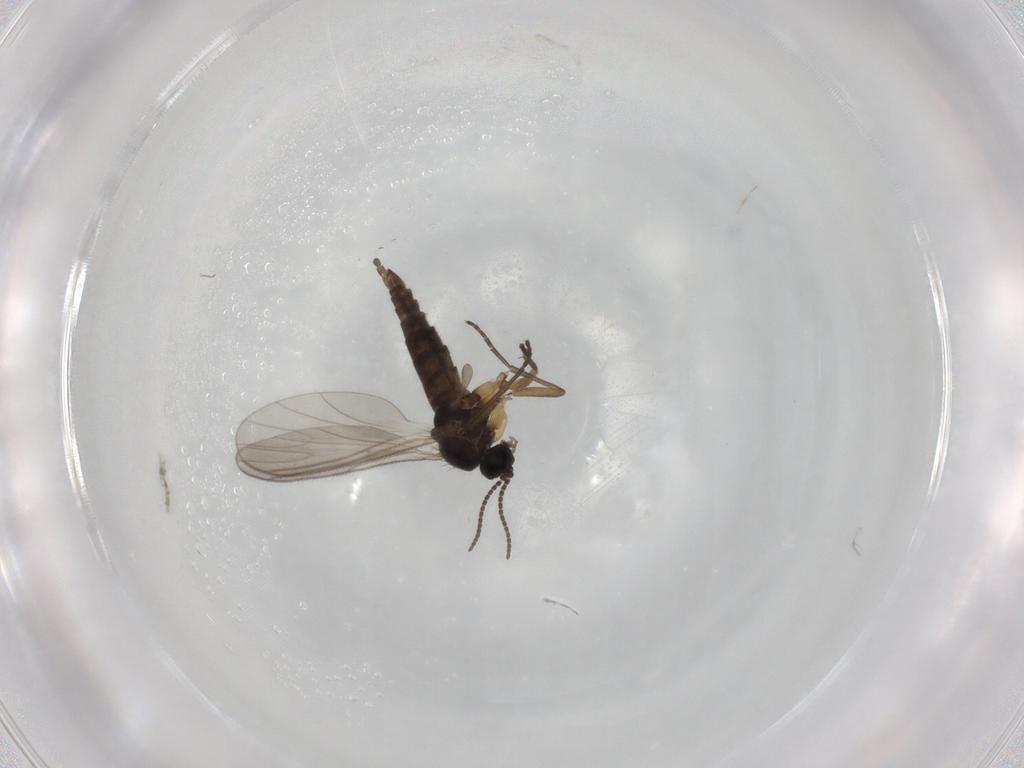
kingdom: Animalia
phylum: Arthropoda
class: Insecta
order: Diptera
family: Sciaridae
